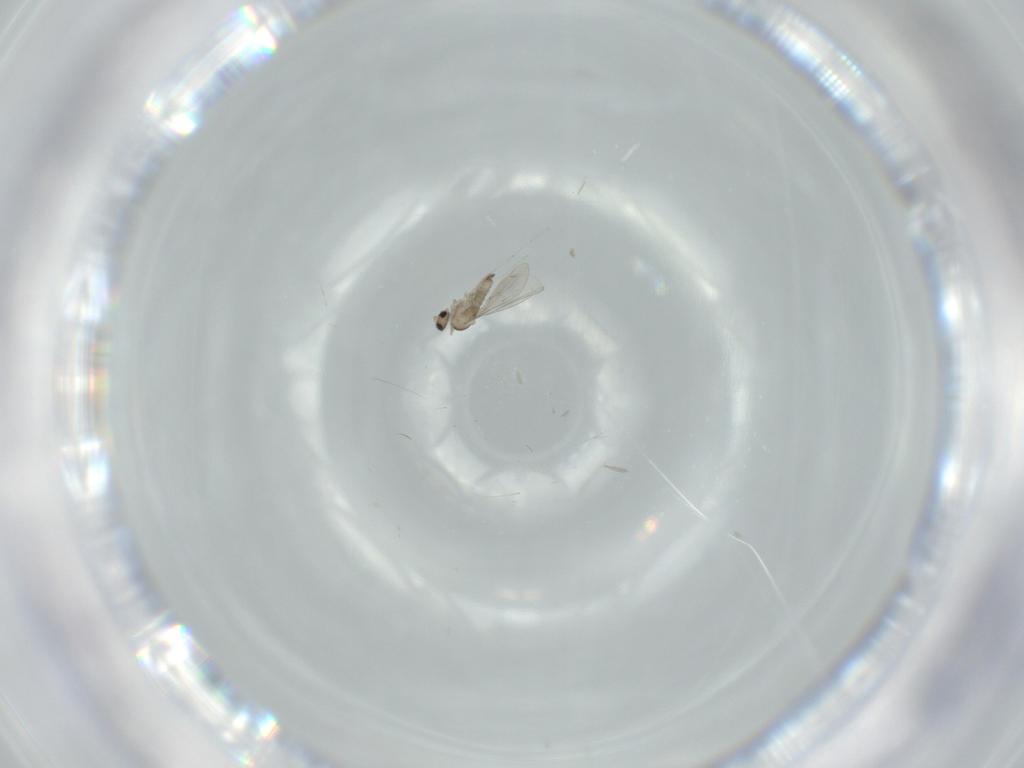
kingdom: Animalia
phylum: Arthropoda
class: Insecta
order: Diptera
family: Cecidomyiidae
